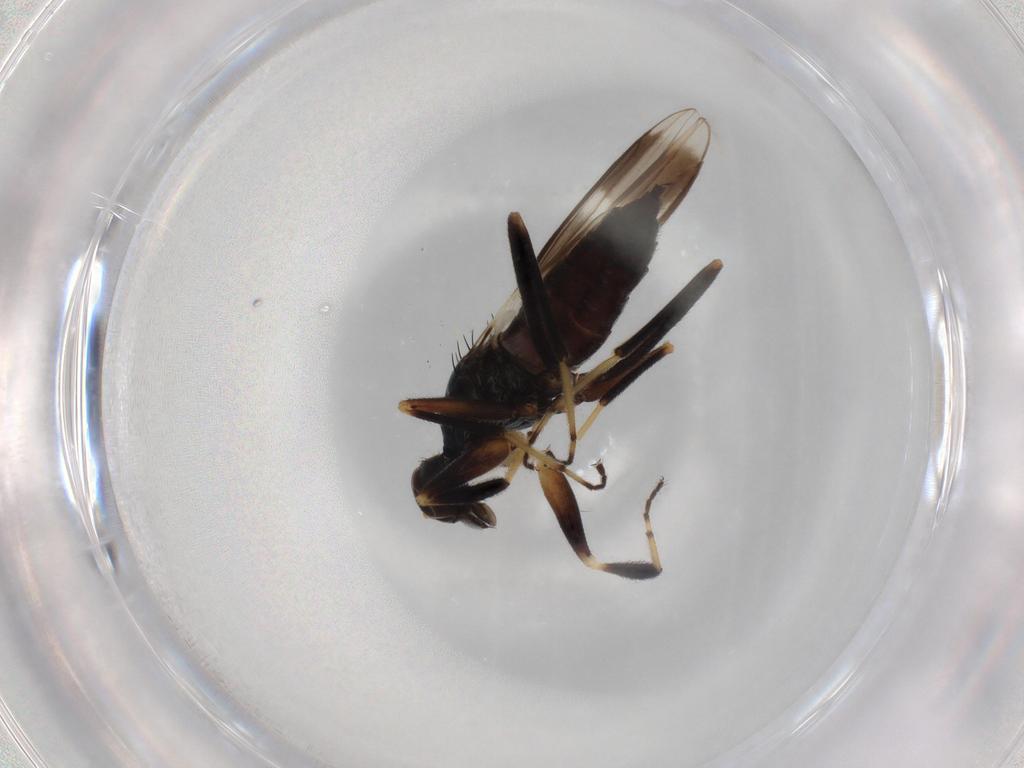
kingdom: Animalia
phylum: Arthropoda
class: Insecta
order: Diptera
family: Hybotidae
